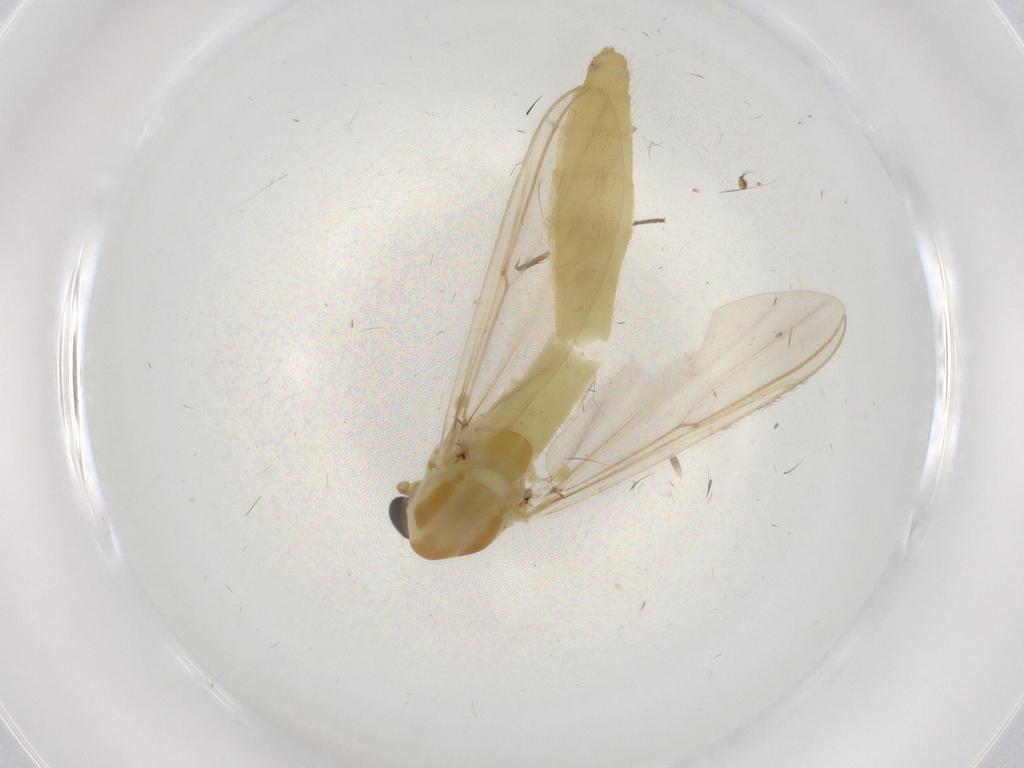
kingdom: Animalia
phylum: Arthropoda
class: Insecta
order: Diptera
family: Chironomidae
